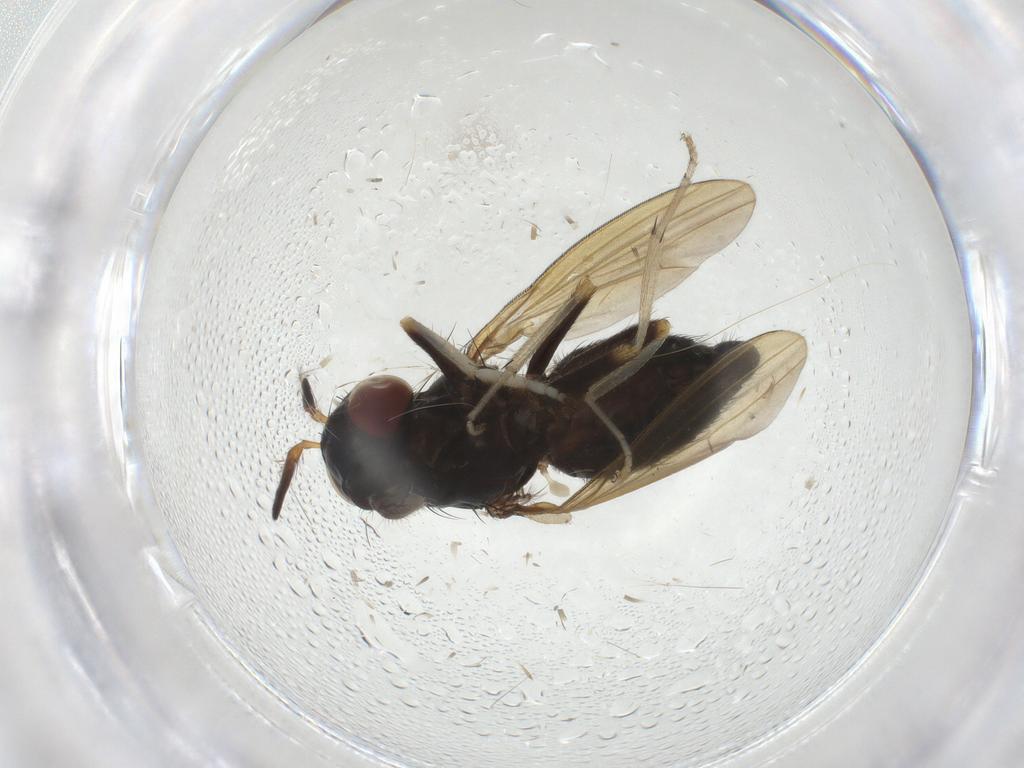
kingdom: Animalia
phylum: Arthropoda
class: Insecta
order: Diptera
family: Lauxaniidae
